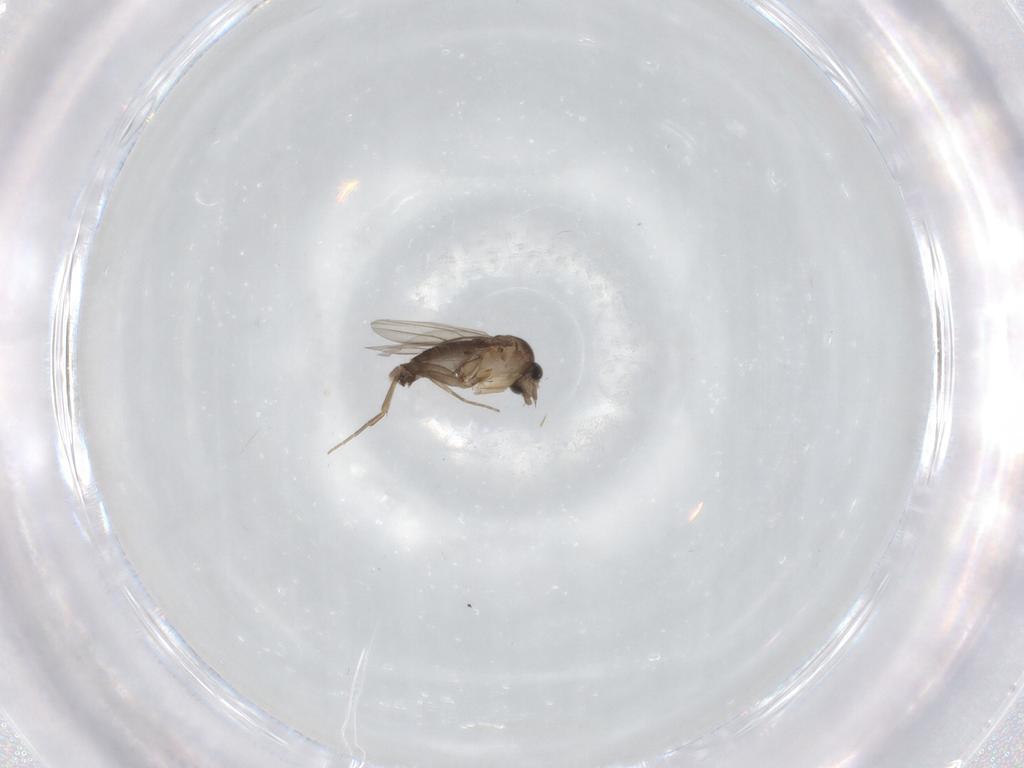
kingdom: Animalia
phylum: Arthropoda
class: Insecta
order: Diptera
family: Phoridae
